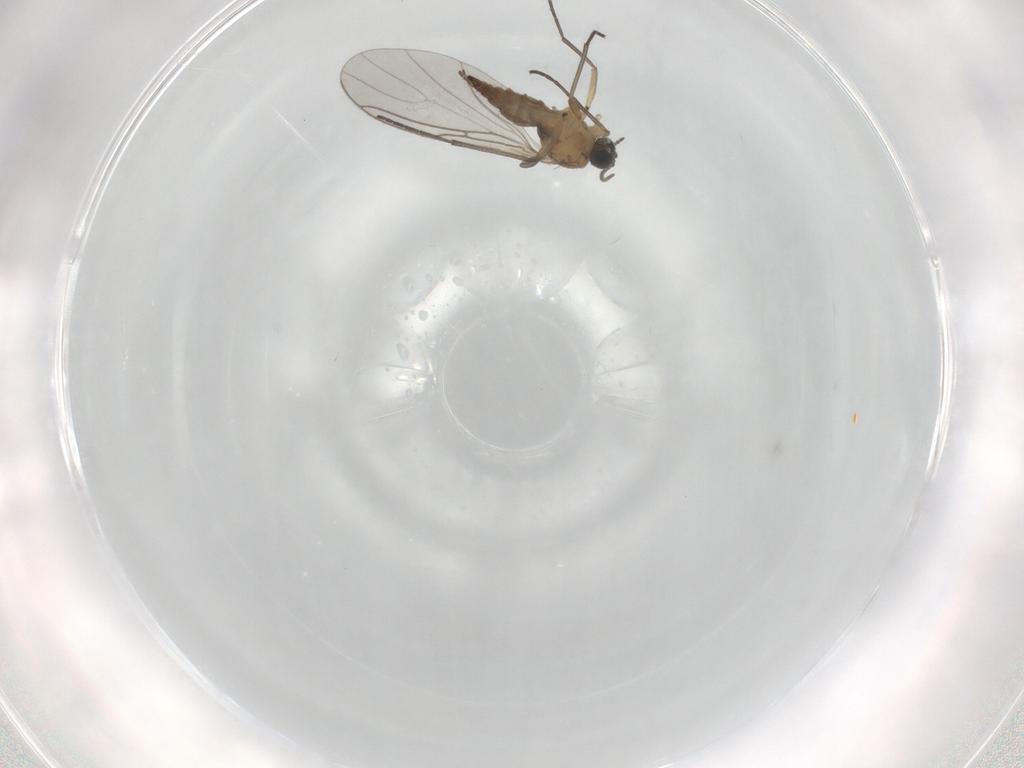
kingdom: Animalia
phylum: Arthropoda
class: Insecta
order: Diptera
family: Sciaridae
